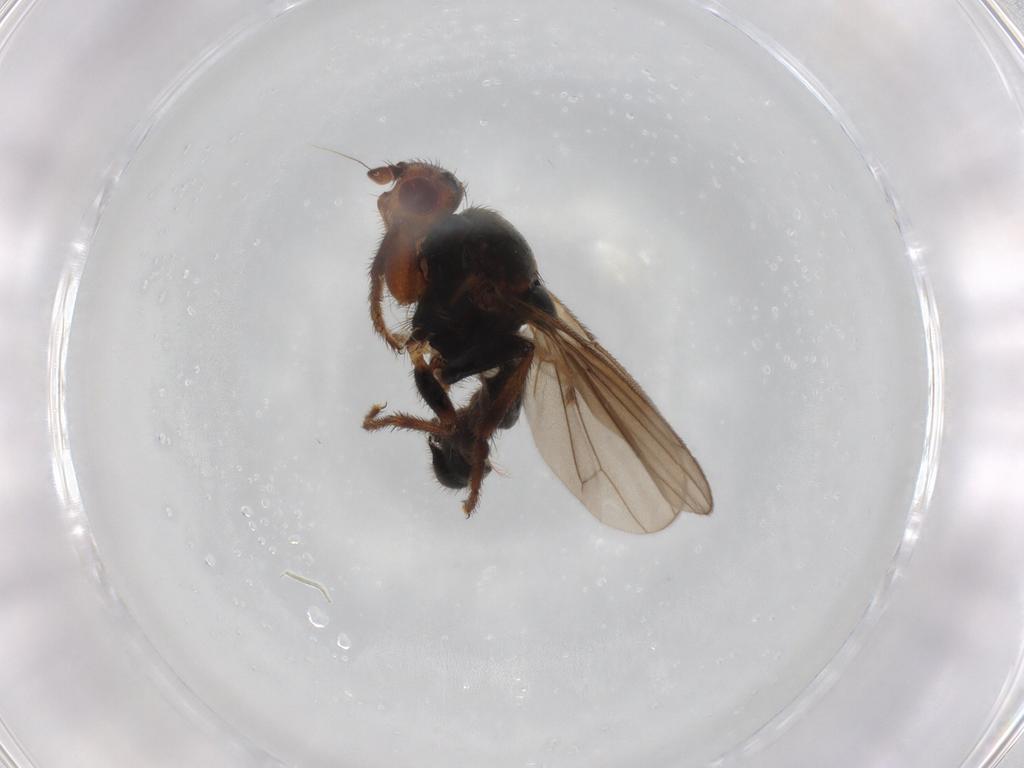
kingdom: Animalia
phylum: Arthropoda
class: Insecta
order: Diptera
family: Sphaeroceridae
